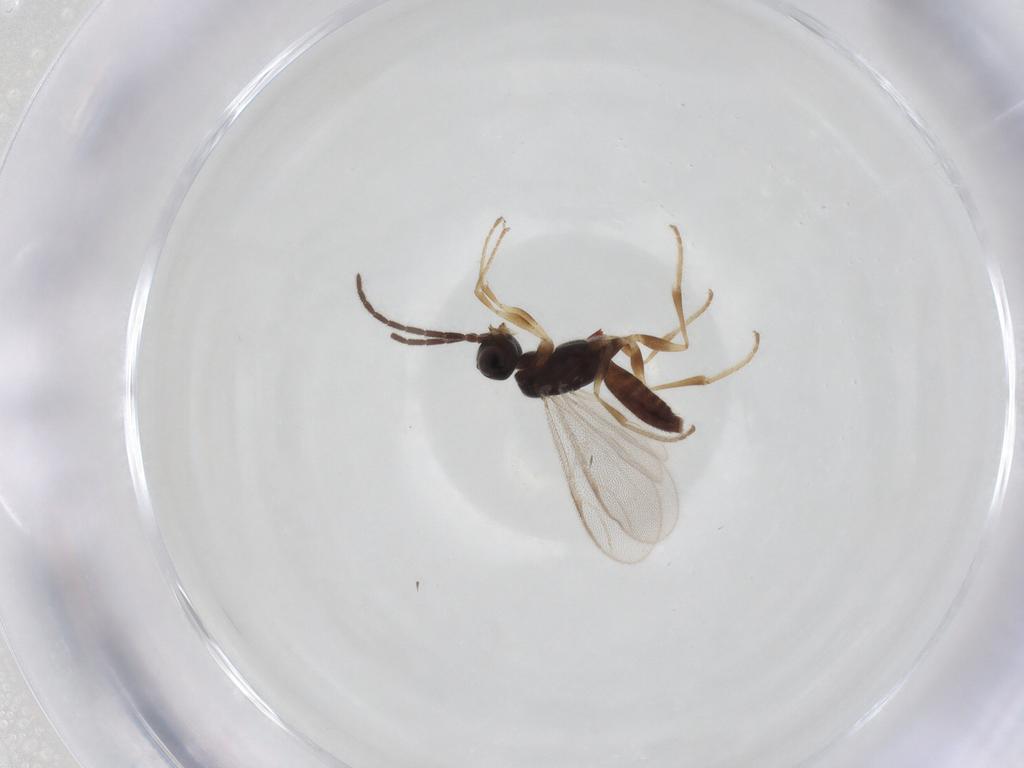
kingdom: Animalia
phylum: Arthropoda
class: Insecta
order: Hymenoptera
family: Dryinidae
